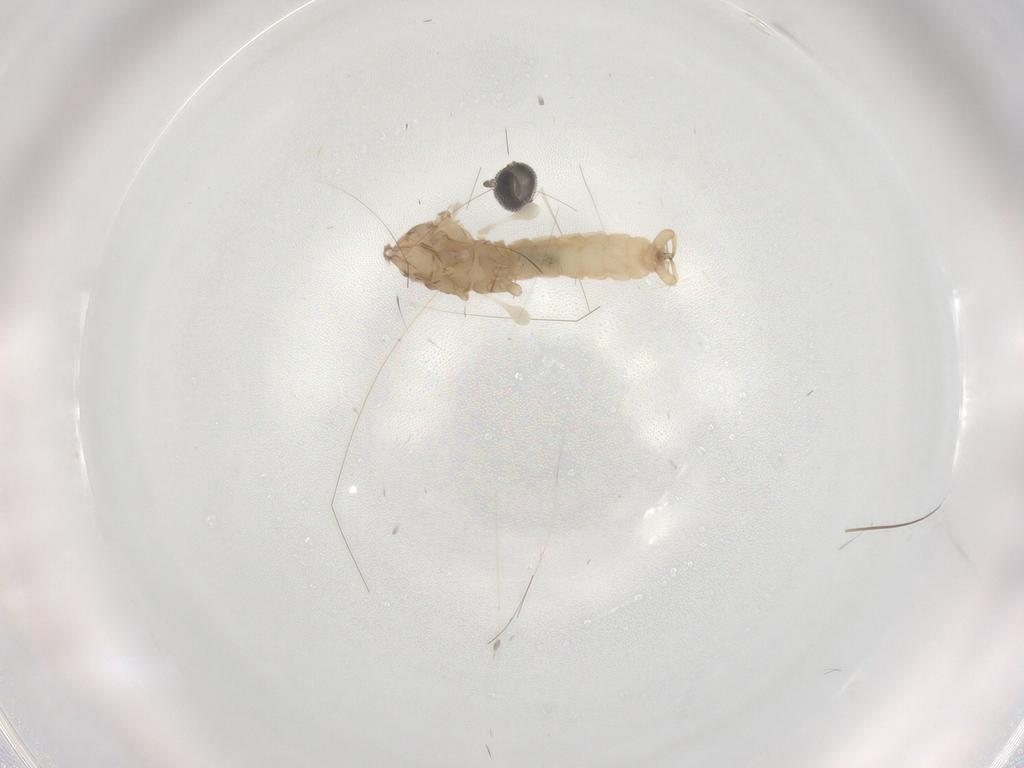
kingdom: Animalia
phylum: Arthropoda
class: Insecta
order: Diptera
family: Cecidomyiidae
